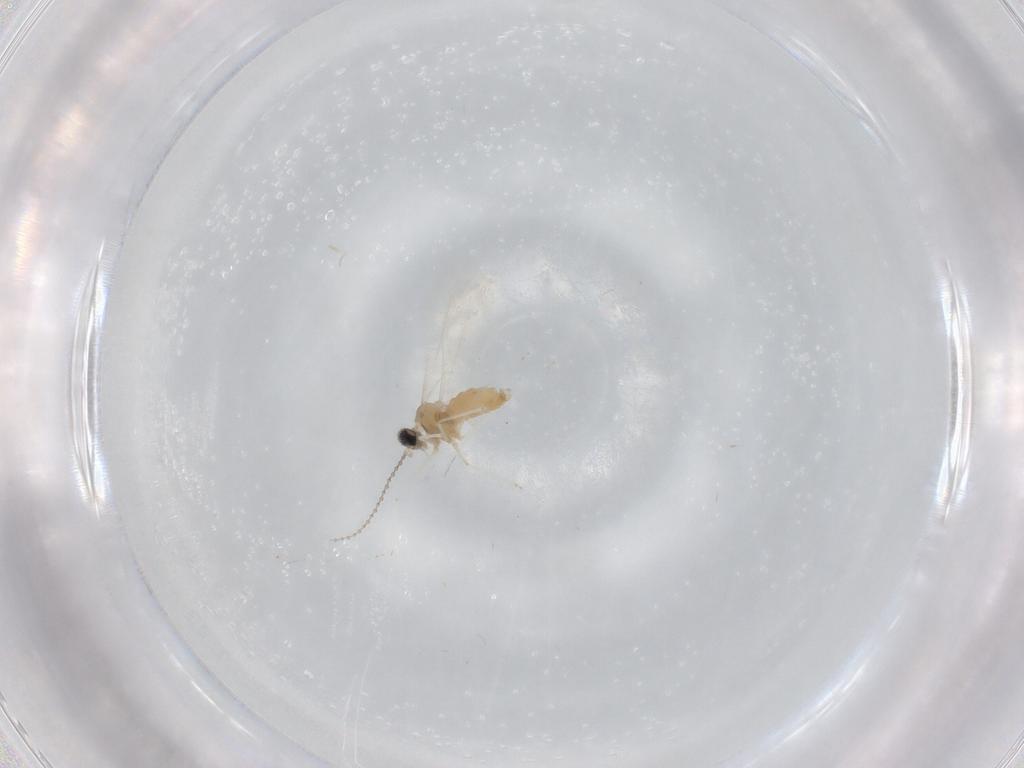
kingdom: Animalia
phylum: Arthropoda
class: Insecta
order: Diptera
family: Cecidomyiidae
